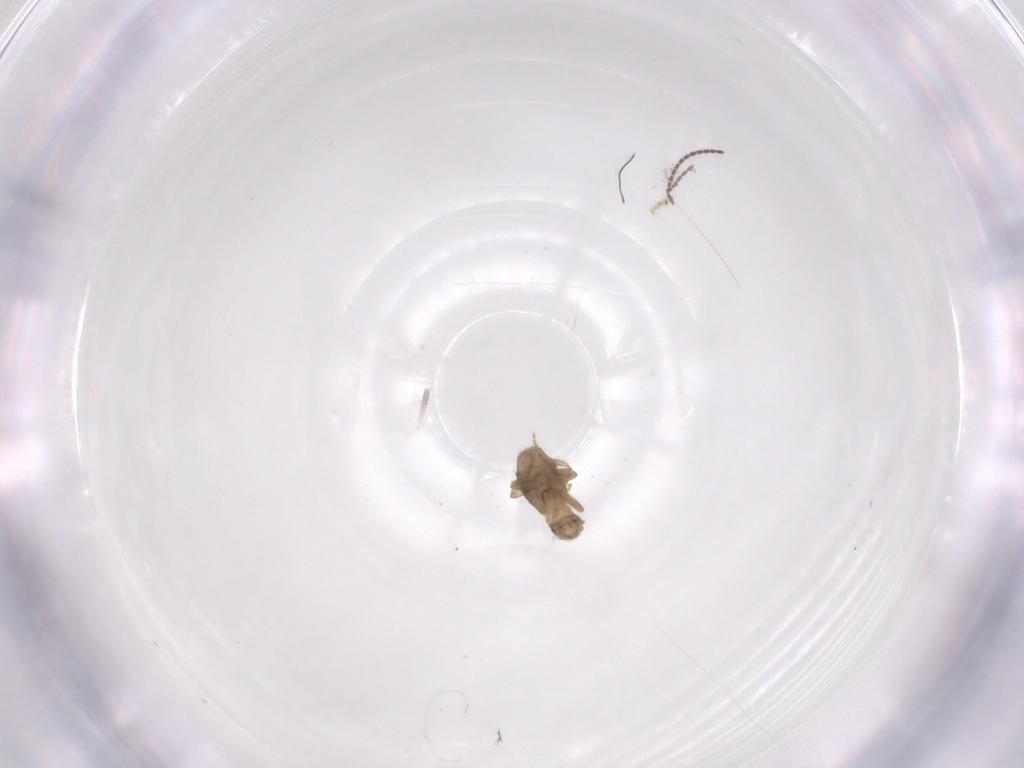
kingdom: Animalia
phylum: Arthropoda
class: Insecta
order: Diptera
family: Phoridae
